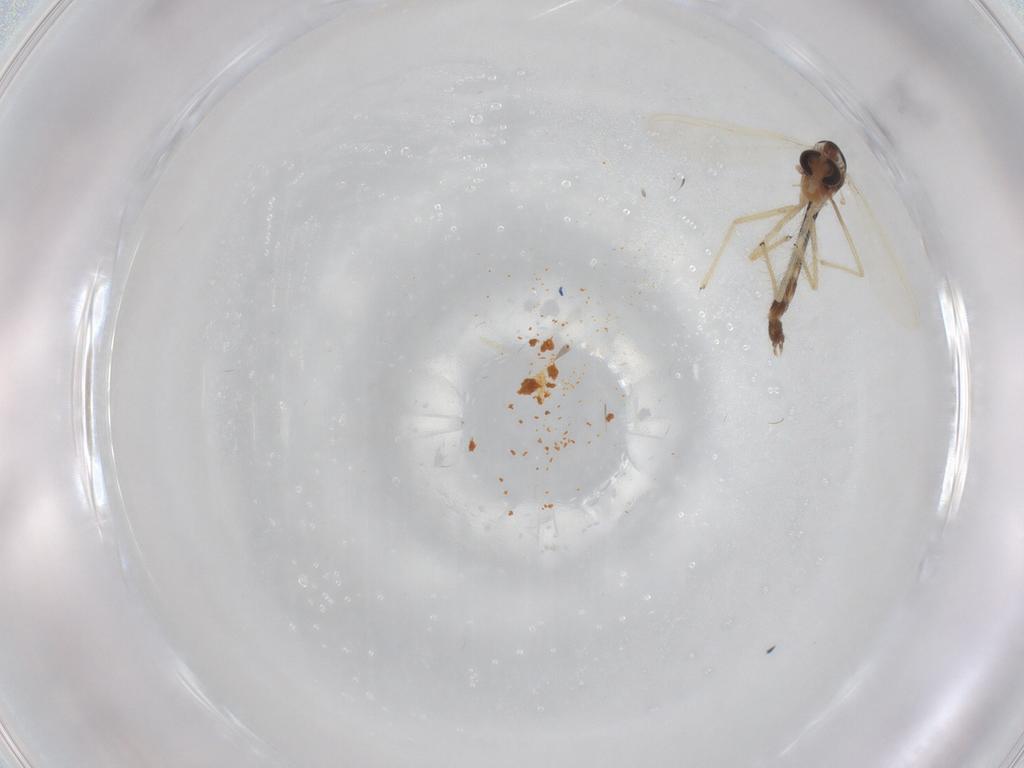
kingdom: Animalia
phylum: Arthropoda
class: Insecta
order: Diptera
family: Chironomidae
